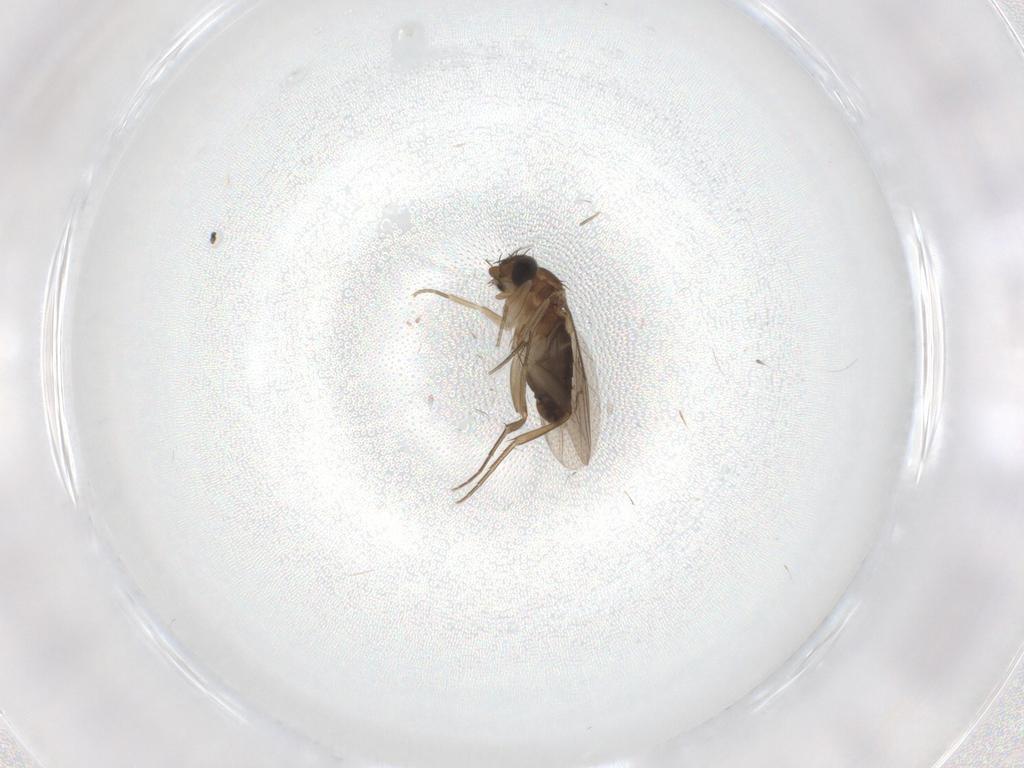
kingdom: Animalia
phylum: Arthropoda
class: Insecta
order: Diptera
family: Phoridae
